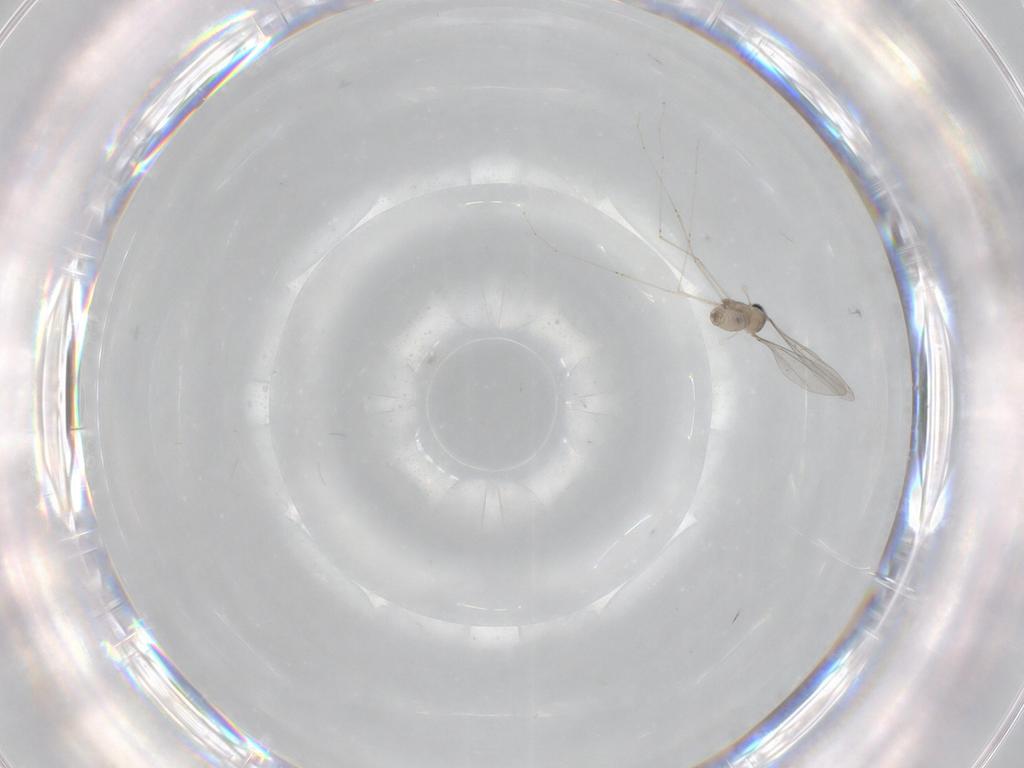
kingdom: Animalia
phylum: Arthropoda
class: Insecta
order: Diptera
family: Cecidomyiidae
